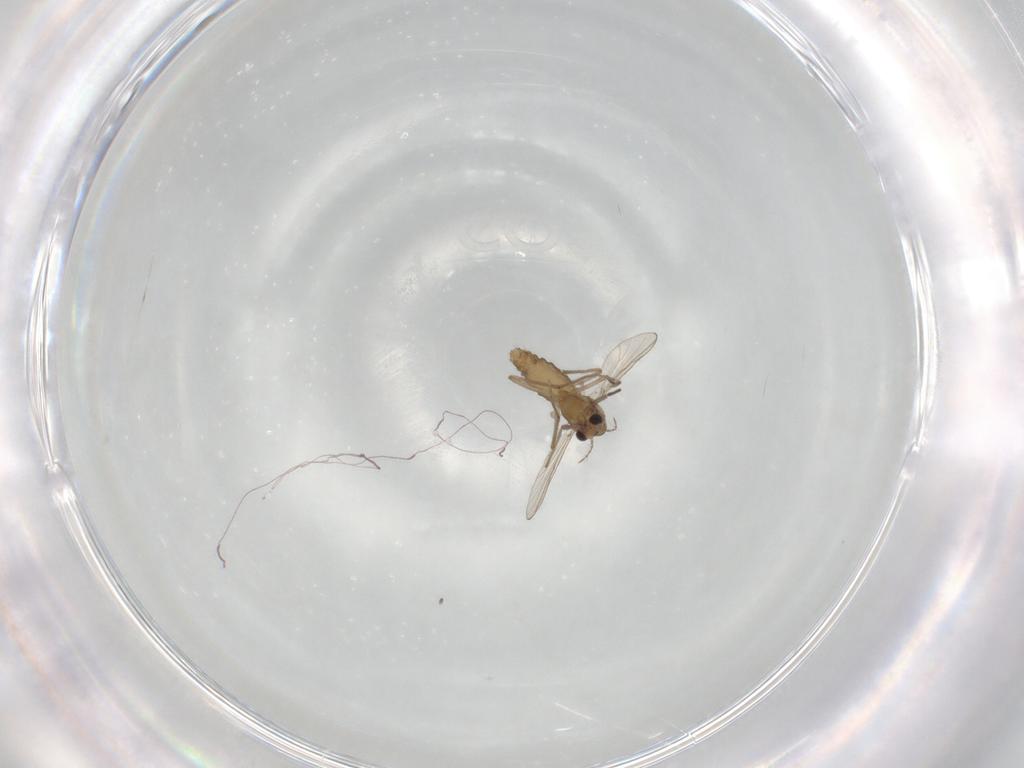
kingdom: Animalia
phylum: Arthropoda
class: Insecta
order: Diptera
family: Chironomidae
